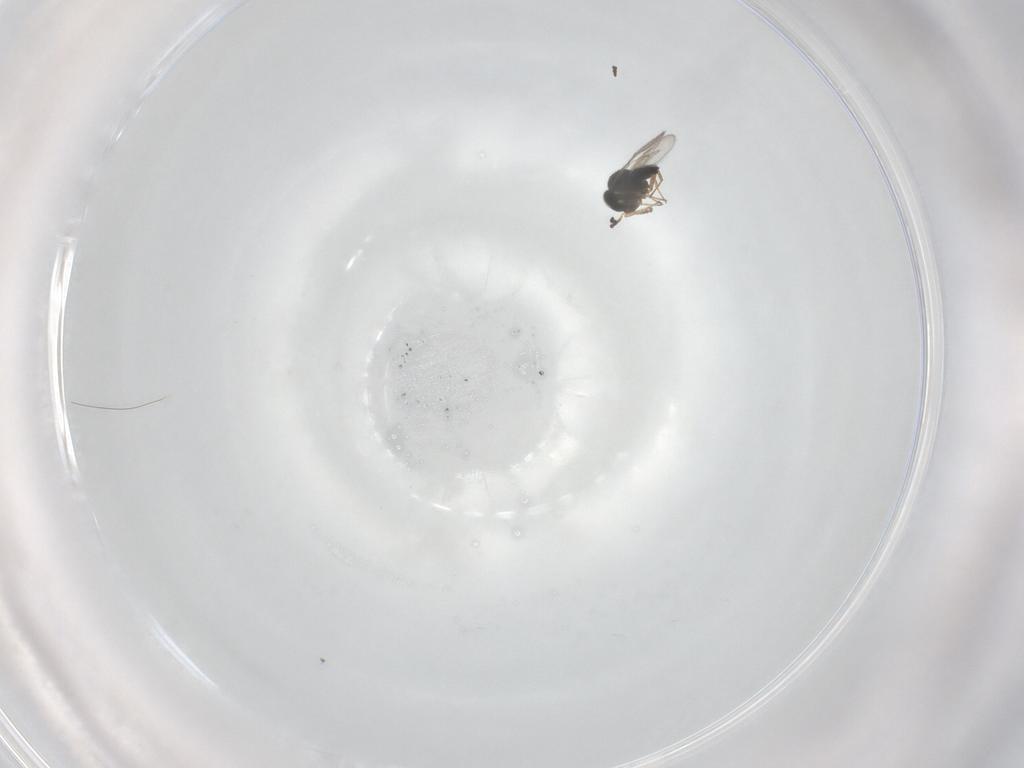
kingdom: Animalia
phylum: Arthropoda
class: Insecta
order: Hymenoptera
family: Scelionidae
